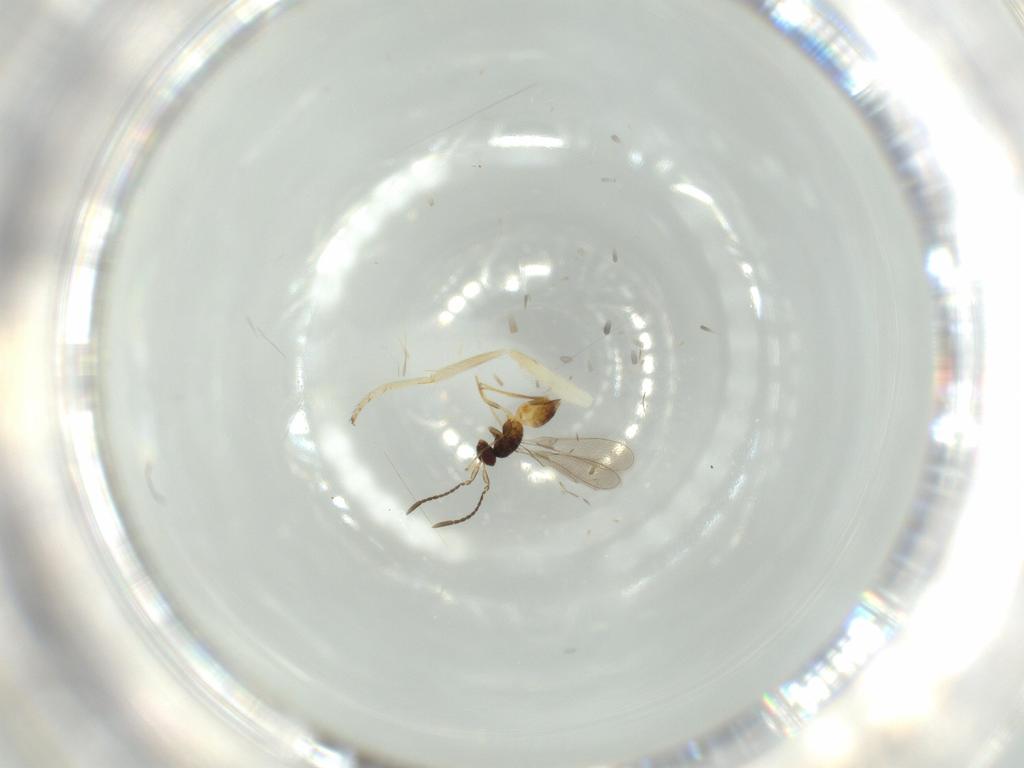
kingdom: Animalia
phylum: Arthropoda
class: Insecta
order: Hymenoptera
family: Mymaridae
